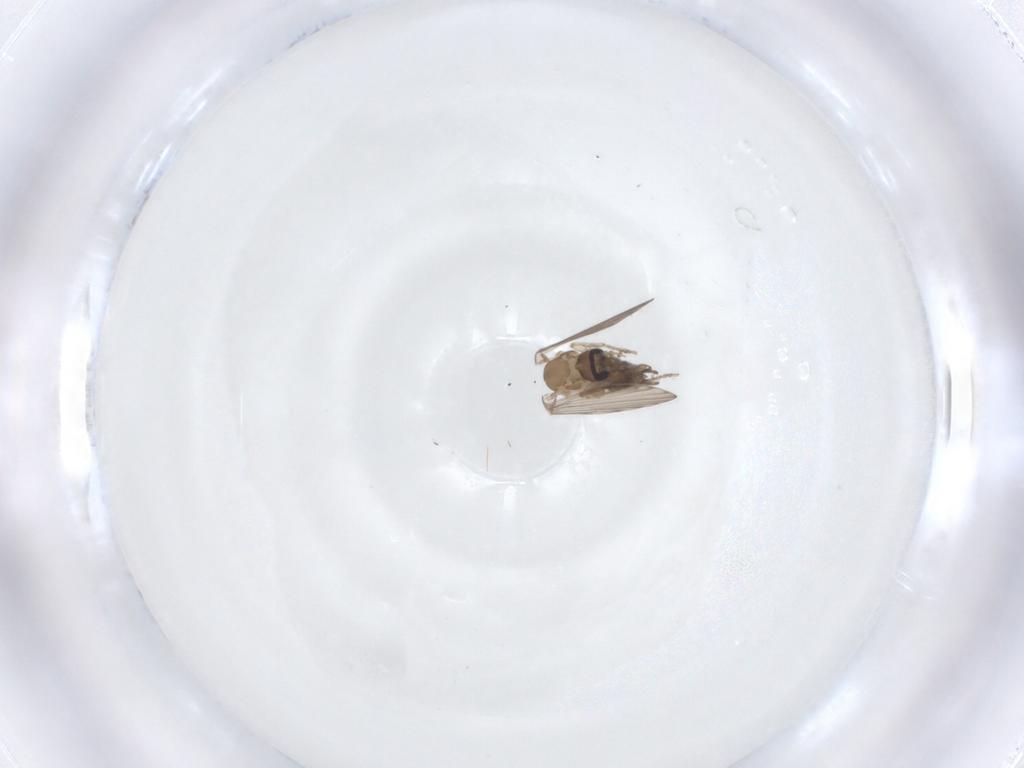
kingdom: Animalia
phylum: Arthropoda
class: Insecta
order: Diptera
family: Psychodidae
